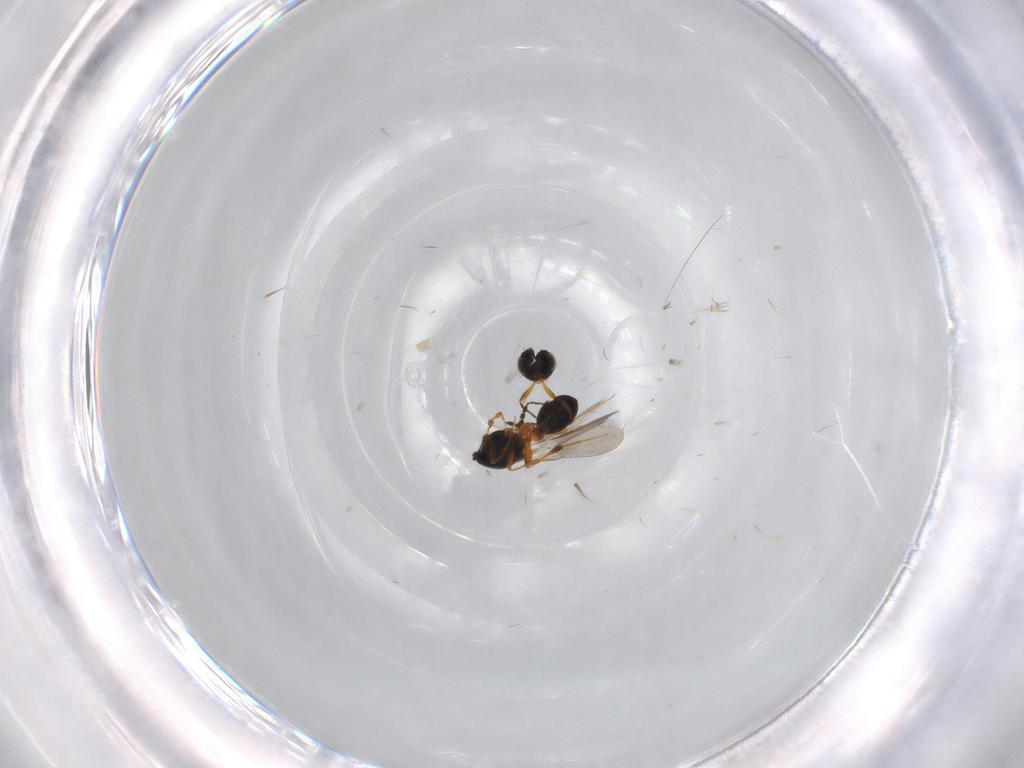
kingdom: Animalia
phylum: Arthropoda
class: Insecta
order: Hymenoptera
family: Platygastridae
